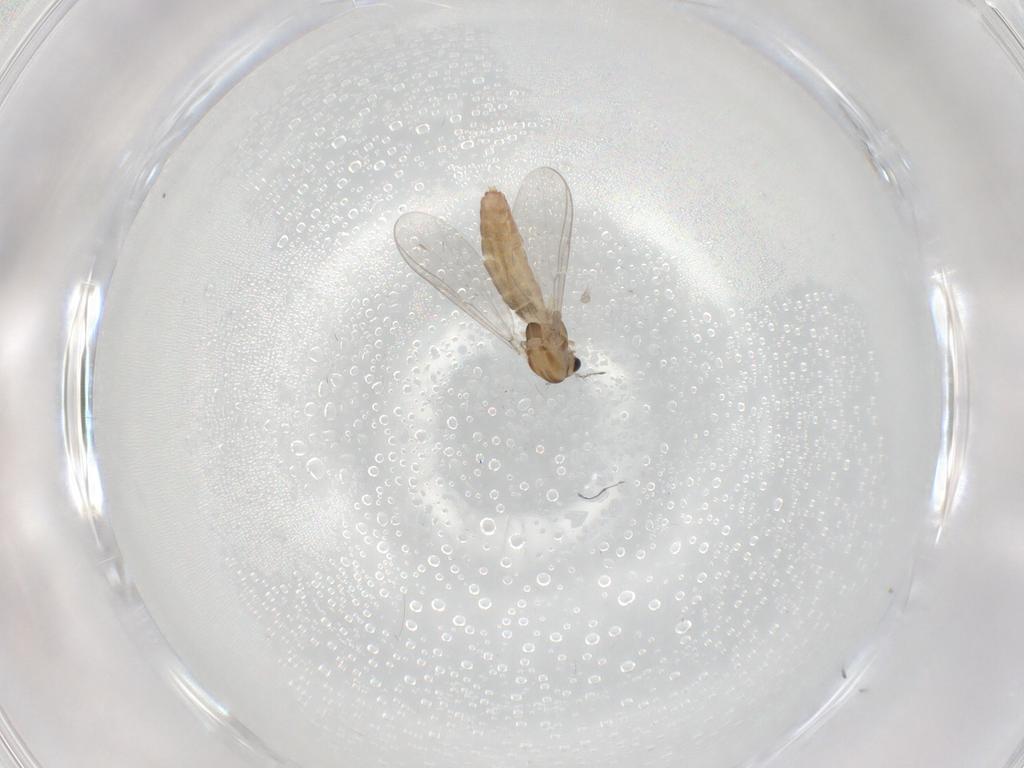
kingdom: Animalia
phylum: Arthropoda
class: Insecta
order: Diptera
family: Chironomidae
